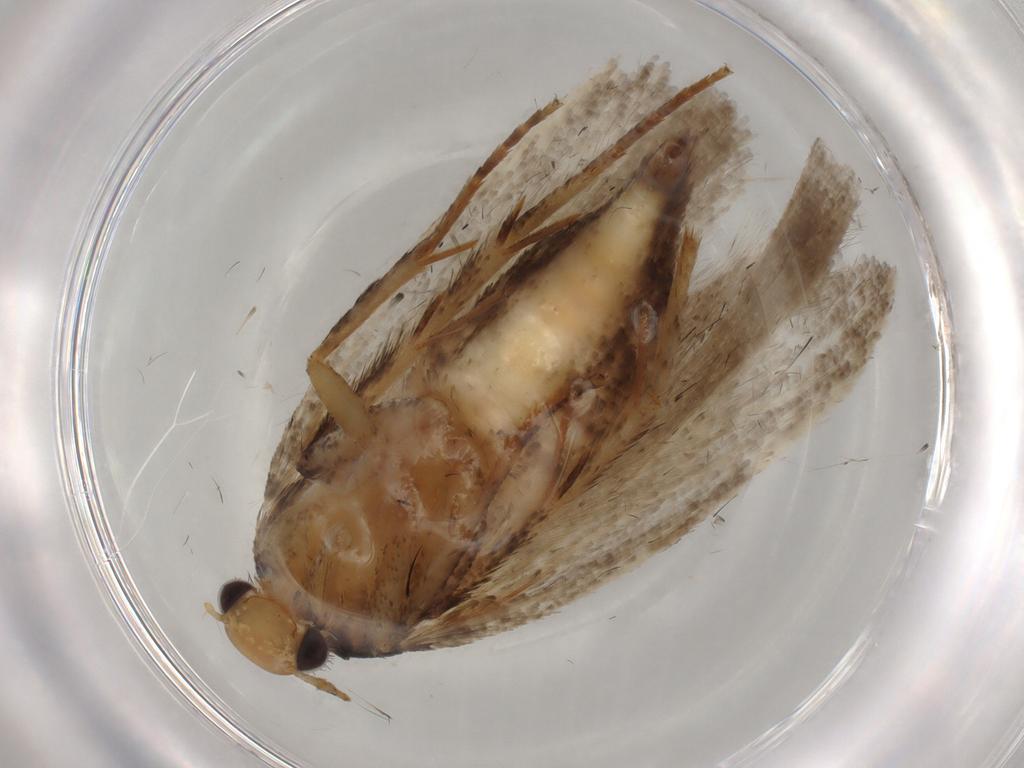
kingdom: Animalia
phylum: Arthropoda
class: Insecta
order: Lepidoptera
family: Gelechiidae
